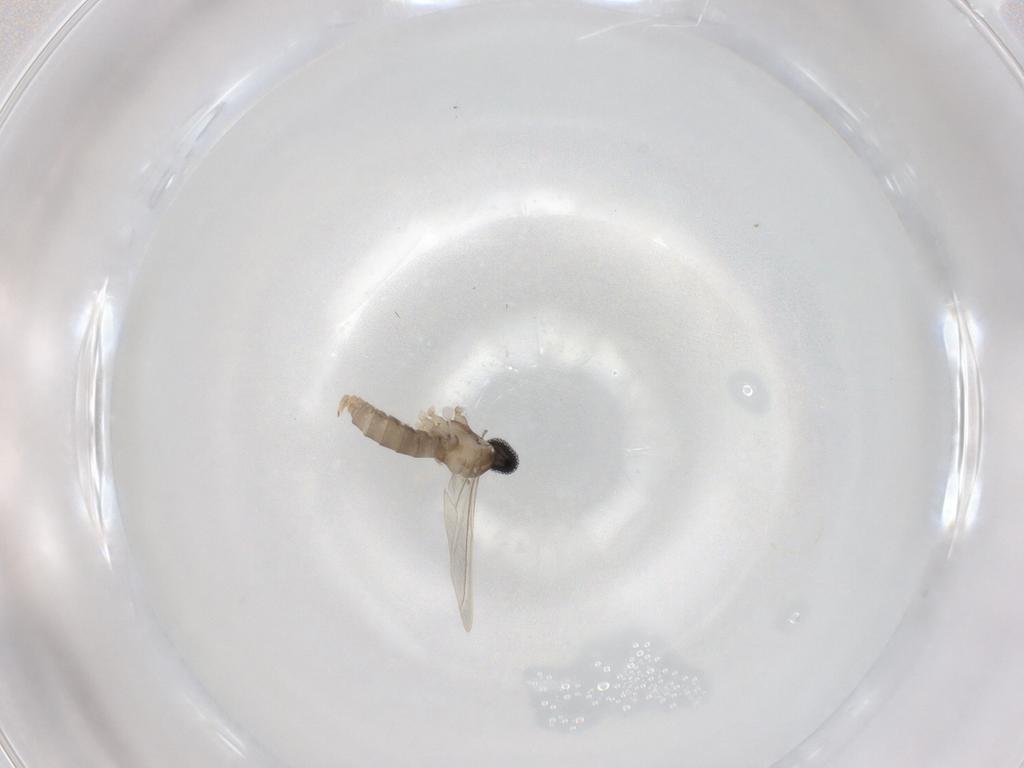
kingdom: Animalia
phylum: Arthropoda
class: Insecta
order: Diptera
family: Cecidomyiidae
